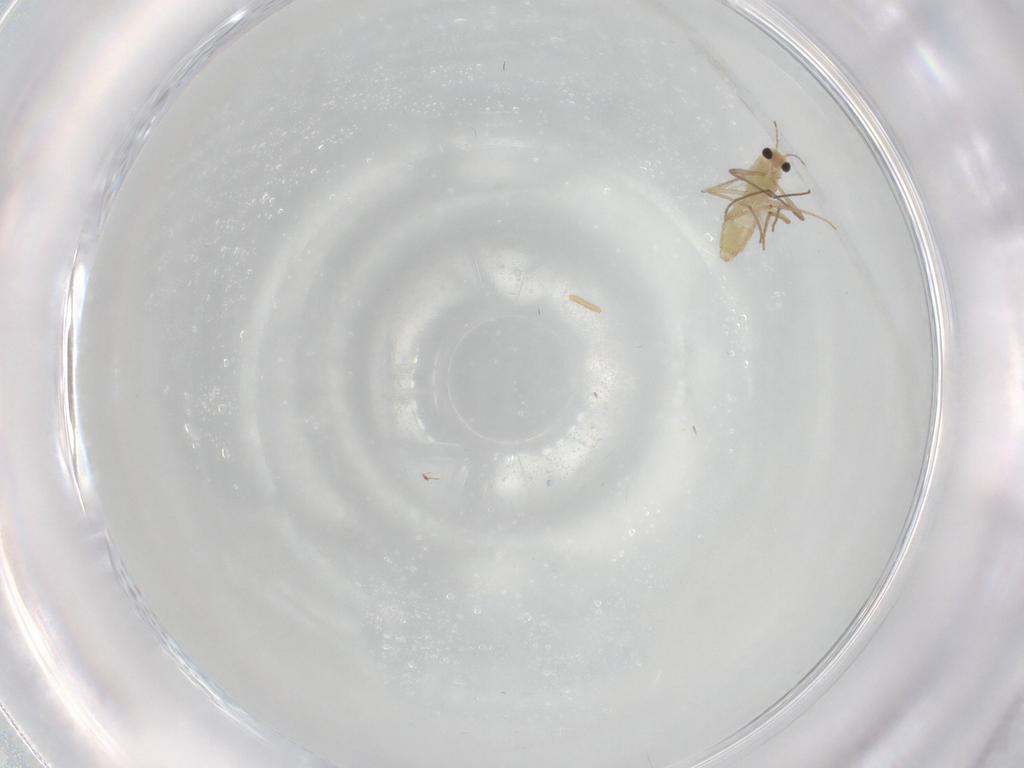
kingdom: Animalia
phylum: Arthropoda
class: Insecta
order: Diptera
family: Chironomidae
